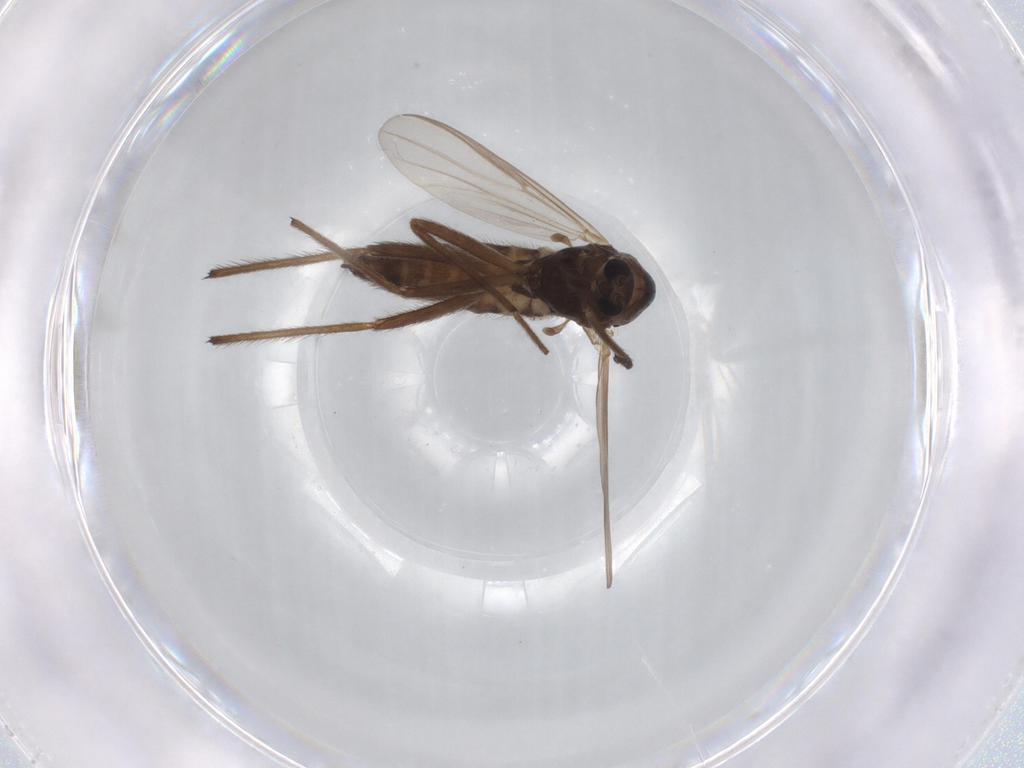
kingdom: Animalia
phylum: Arthropoda
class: Insecta
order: Diptera
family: Chironomidae
